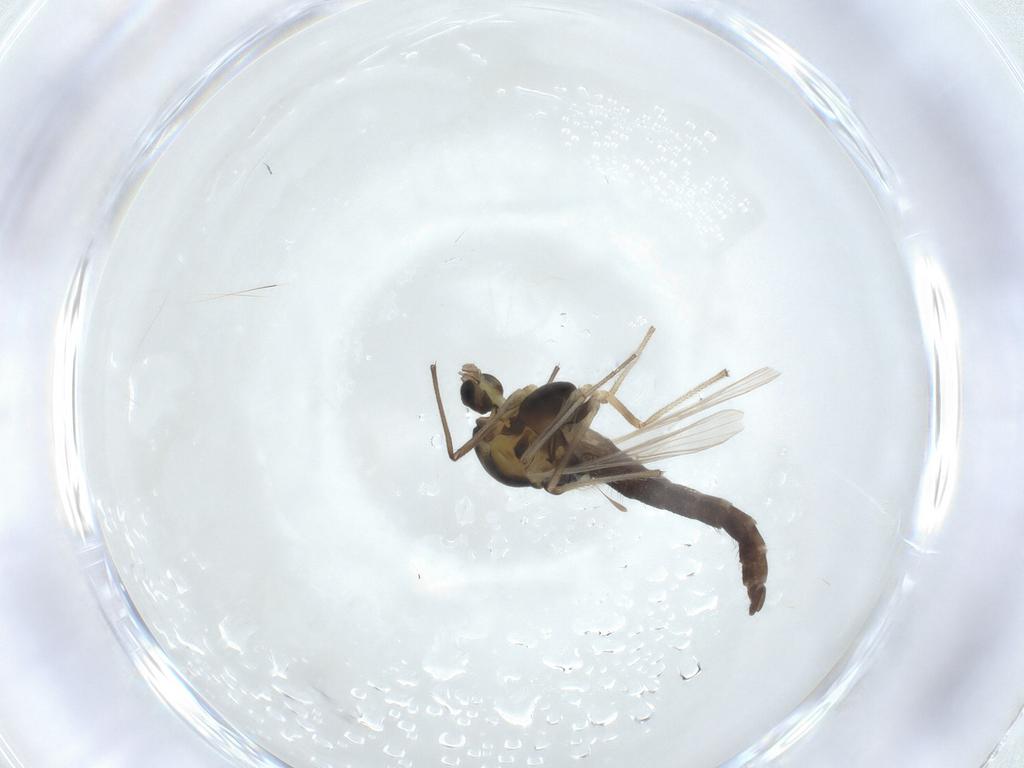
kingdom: Animalia
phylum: Arthropoda
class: Insecta
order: Diptera
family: Chironomidae
